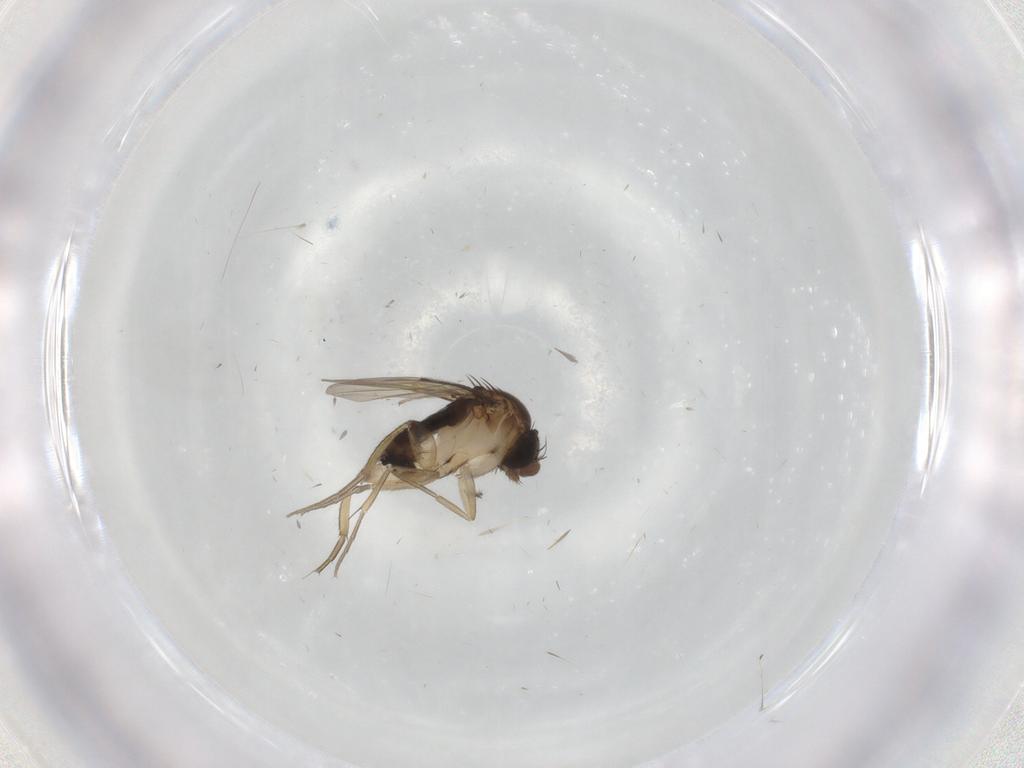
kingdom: Animalia
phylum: Arthropoda
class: Insecta
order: Diptera
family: Phoridae
